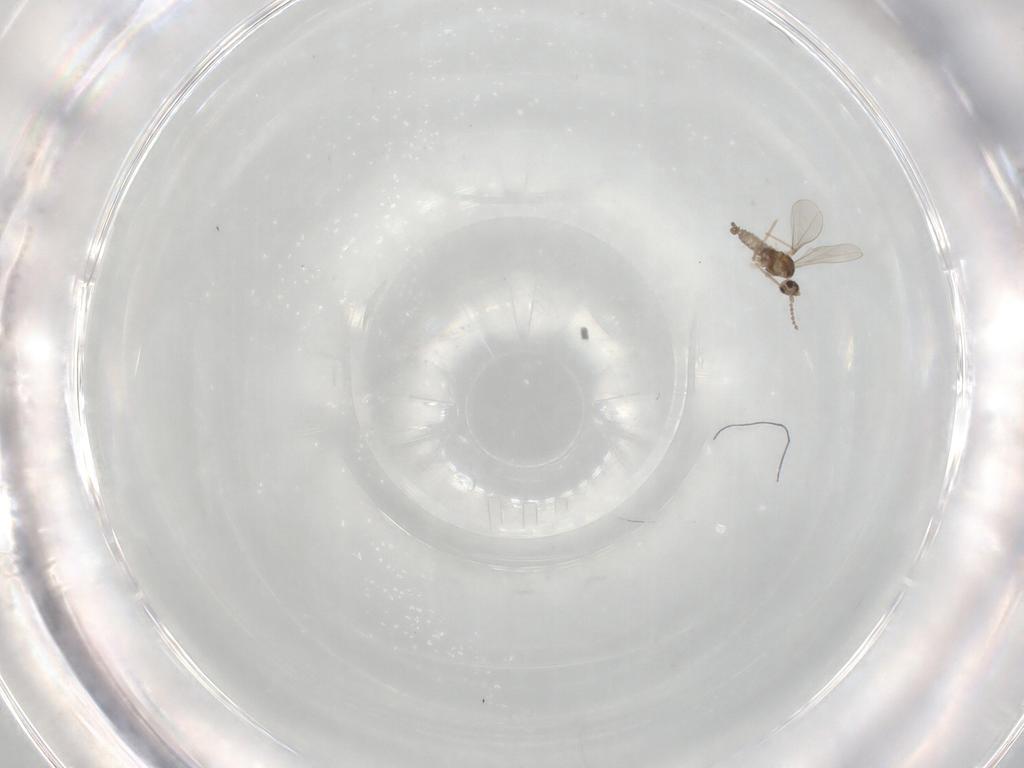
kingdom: Animalia
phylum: Arthropoda
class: Insecta
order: Diptera
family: Cecidomyiidae
